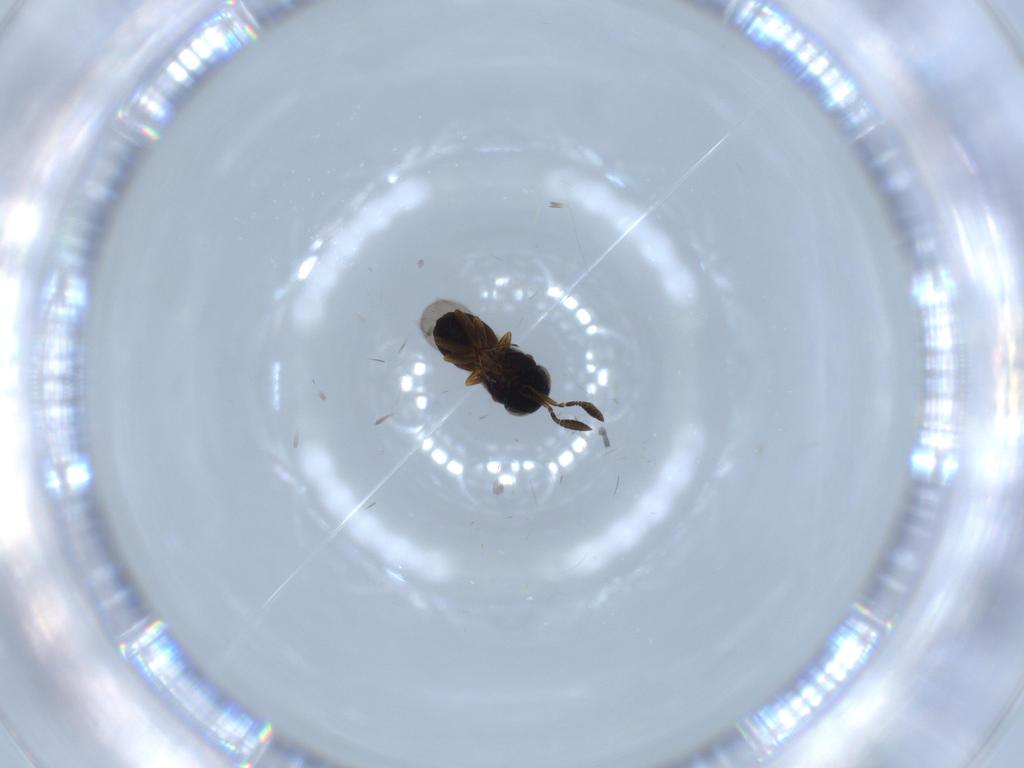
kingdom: Animalia
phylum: Arthropoda
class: Insecta
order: Coleoptera
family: Curculionidae
